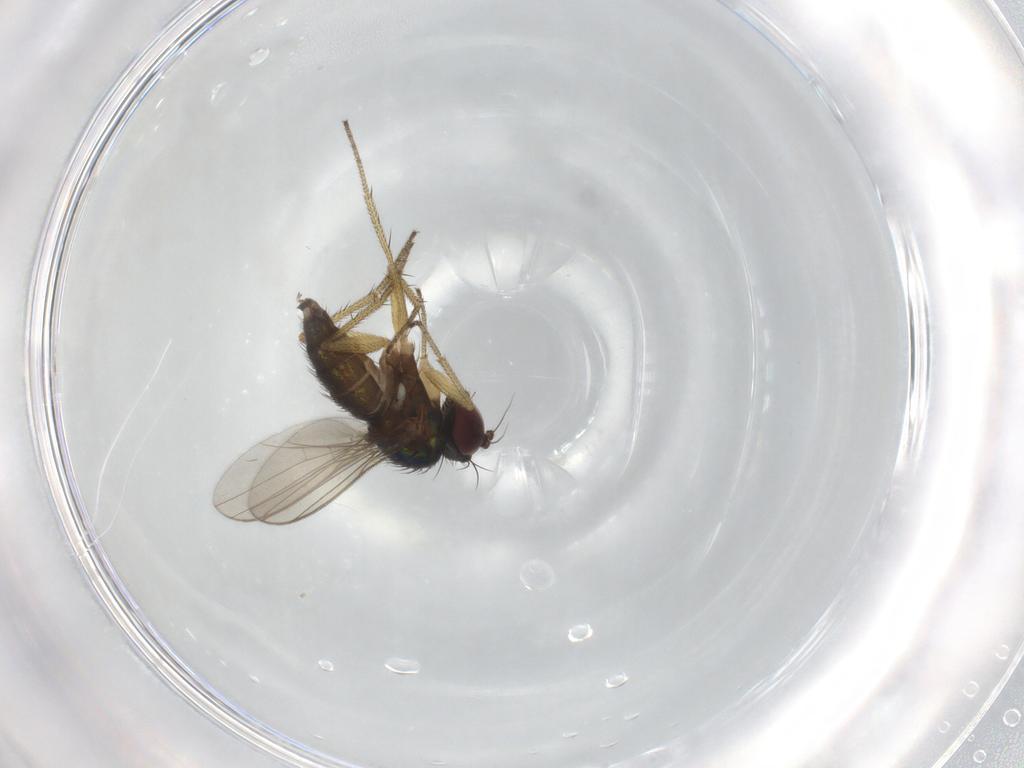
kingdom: Animalia
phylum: Arthropoda
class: Insecta
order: Diptera
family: Dolichopodidae
